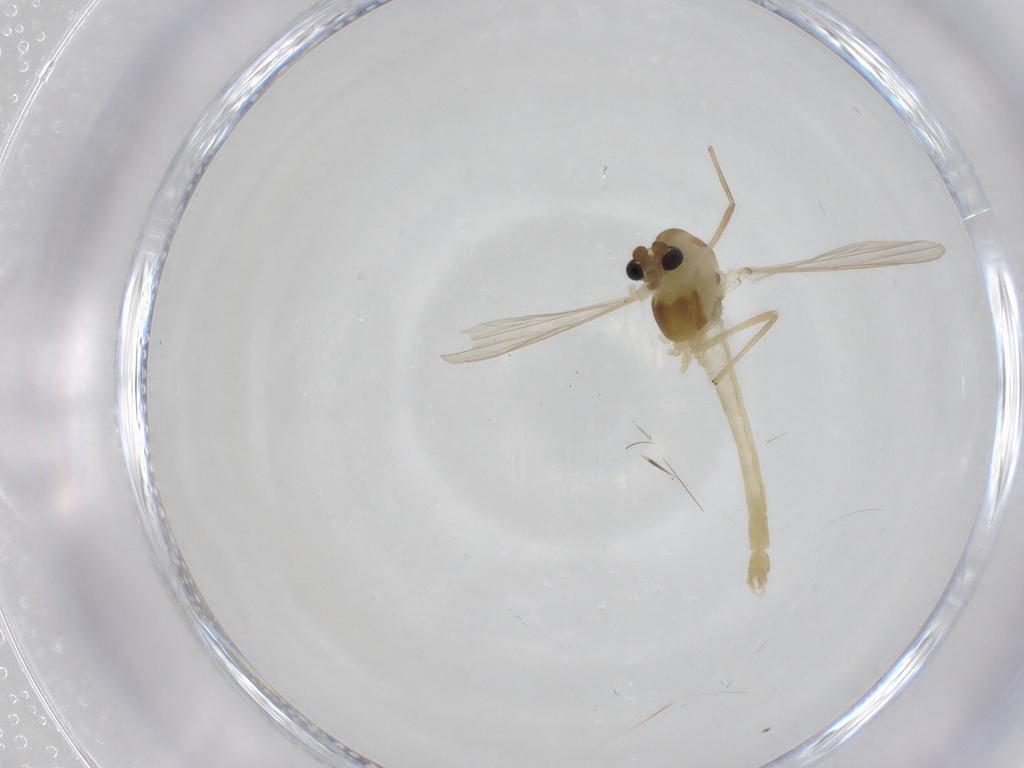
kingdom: Animalia
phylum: Arthropoda
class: Insecta
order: Diptera
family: Chironomidae
